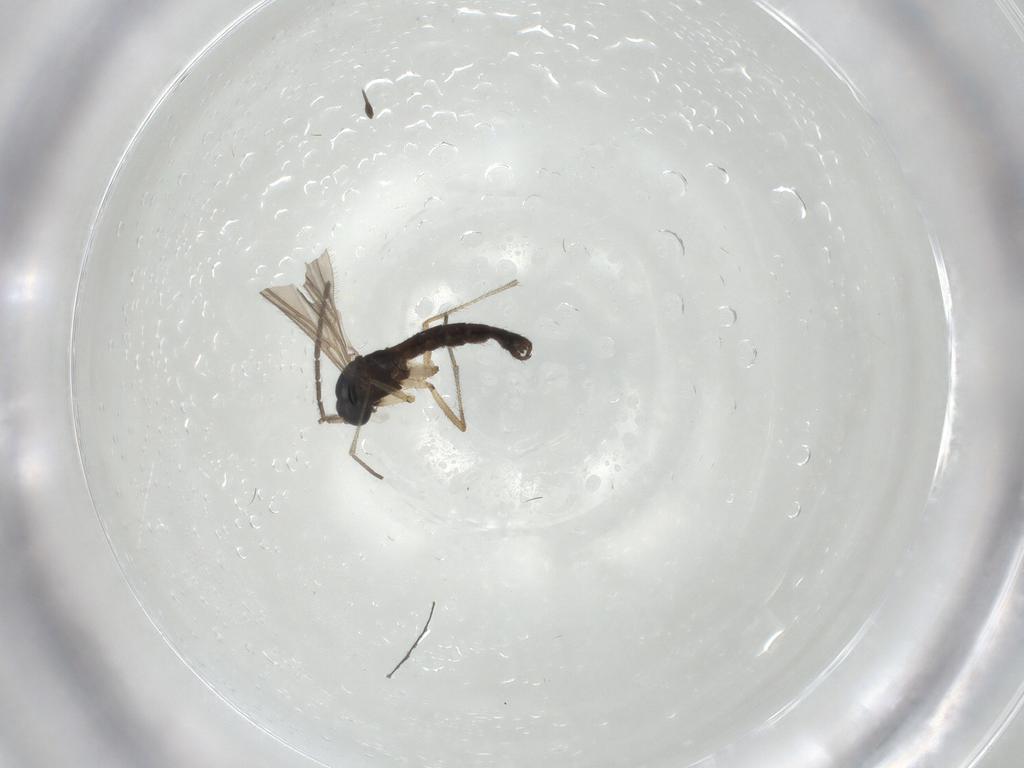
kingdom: Animalia
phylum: Arthropoda
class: Insecta
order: Diptera
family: Sciaridae
